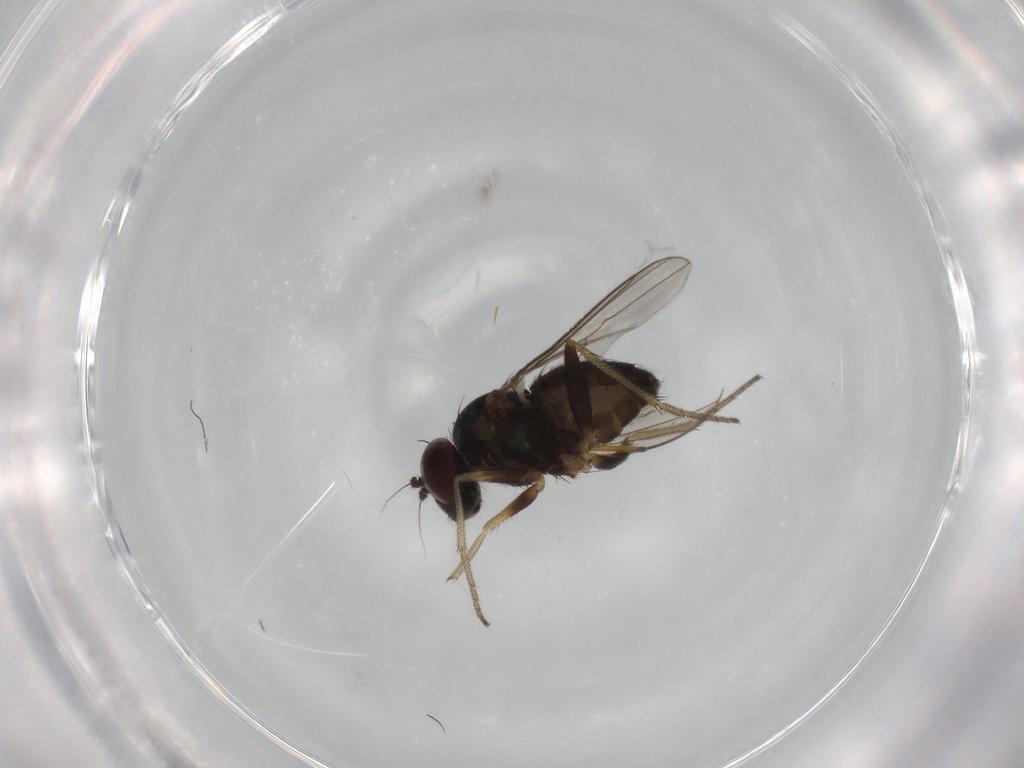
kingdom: Animalia
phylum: Arthropoda
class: Insecta
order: Diptera
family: Dolichopodidae
